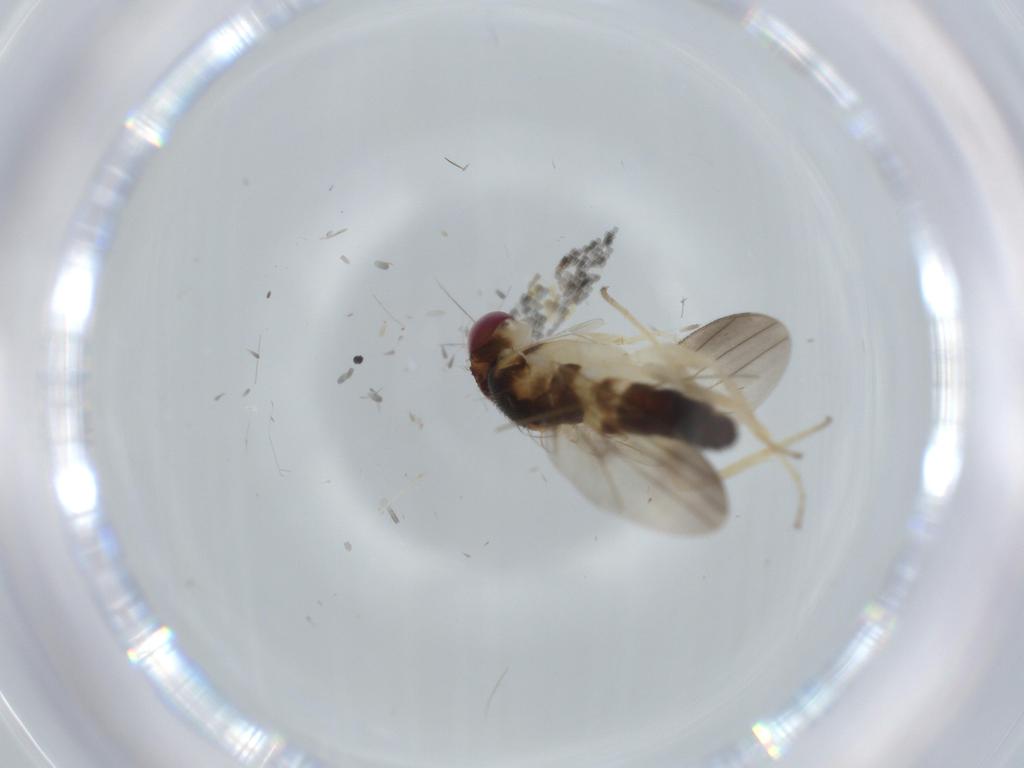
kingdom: Animalia
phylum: Arthropoda
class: Insecta
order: Diptera
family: Clusiidae
